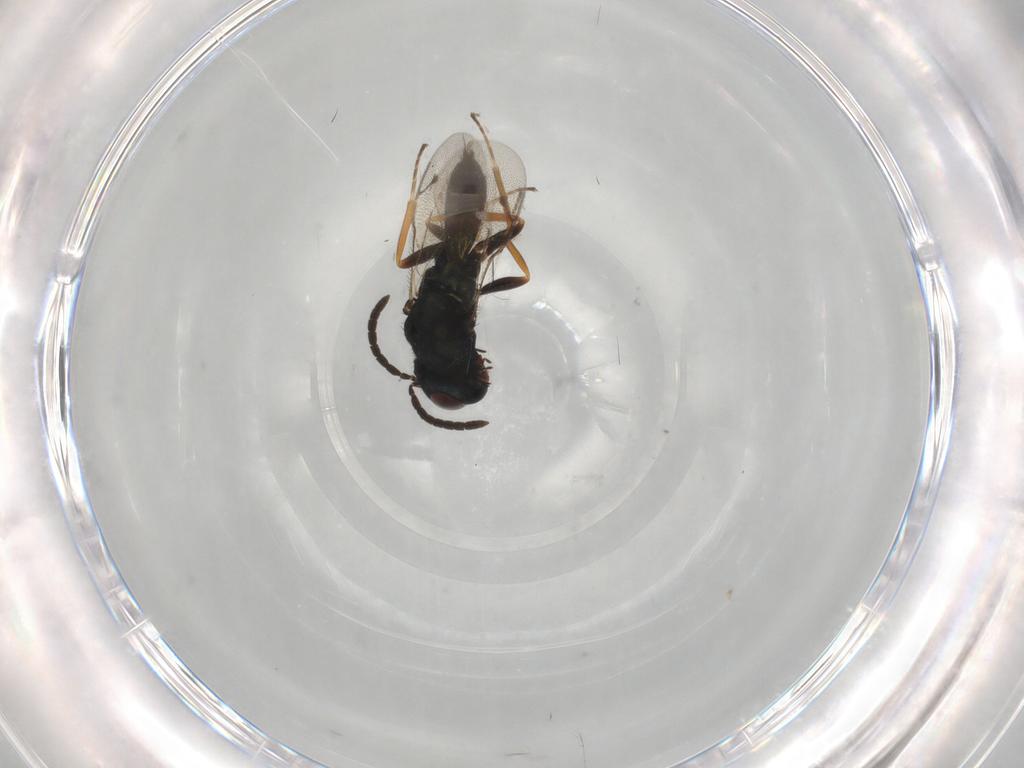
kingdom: Animalia
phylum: Arthropoda
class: Insecta
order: Hymenoptera
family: Pteromalidae
